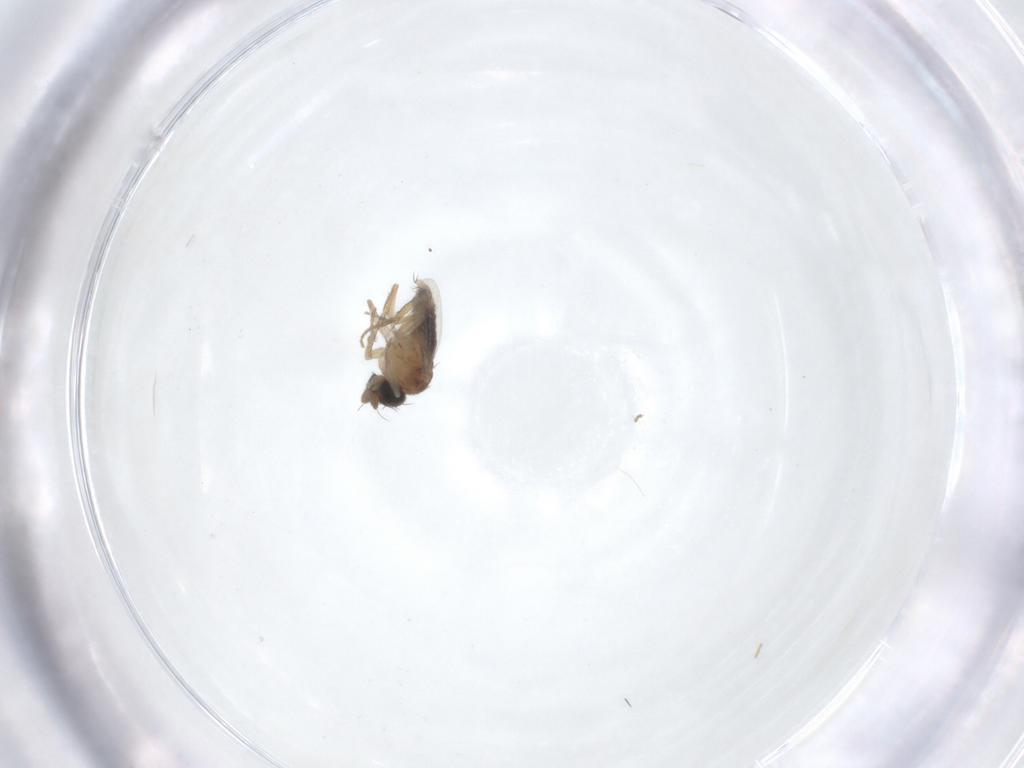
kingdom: Animalia
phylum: Arthropoda
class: Insecta
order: Diptera
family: Phoridae
